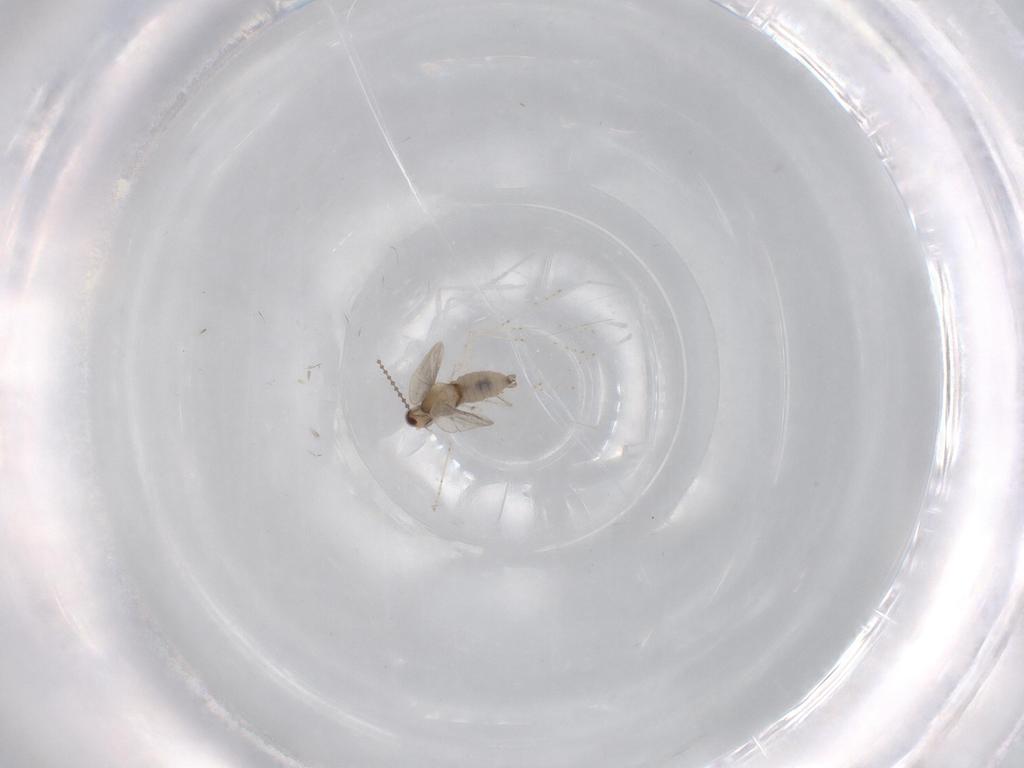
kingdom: Animalia
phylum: Arthropoda
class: Insecta
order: Diptera
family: Cecidomyiidae
